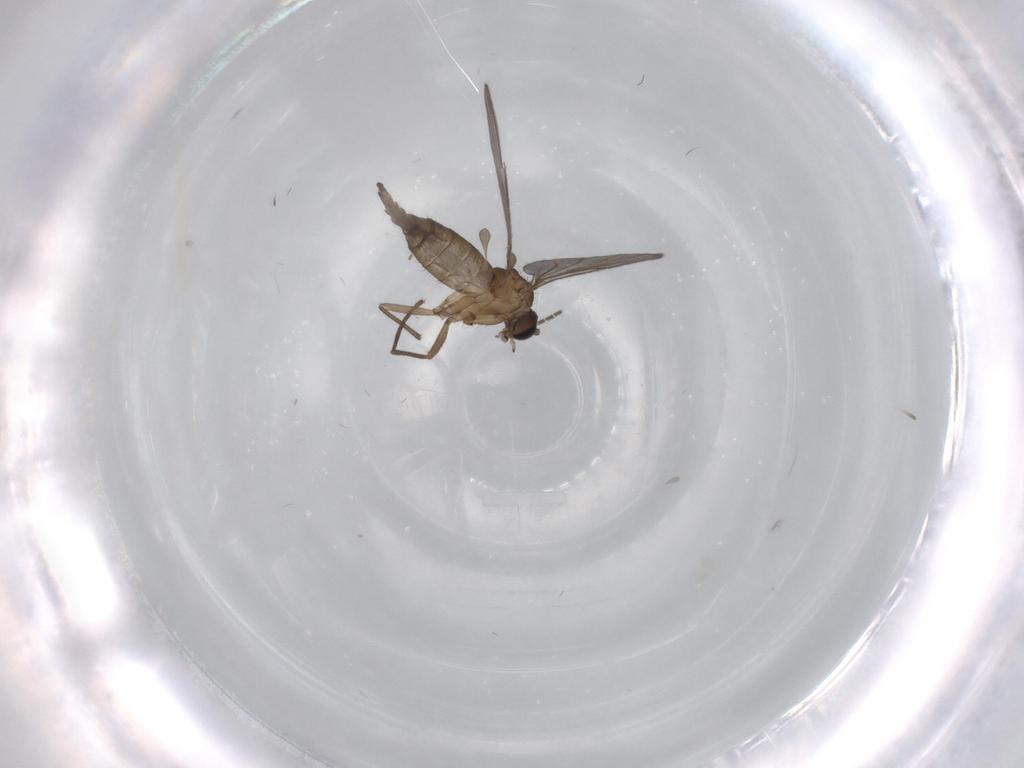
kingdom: Animalia
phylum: Arthropoda
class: Insecta
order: Diptera
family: Sciaridae
